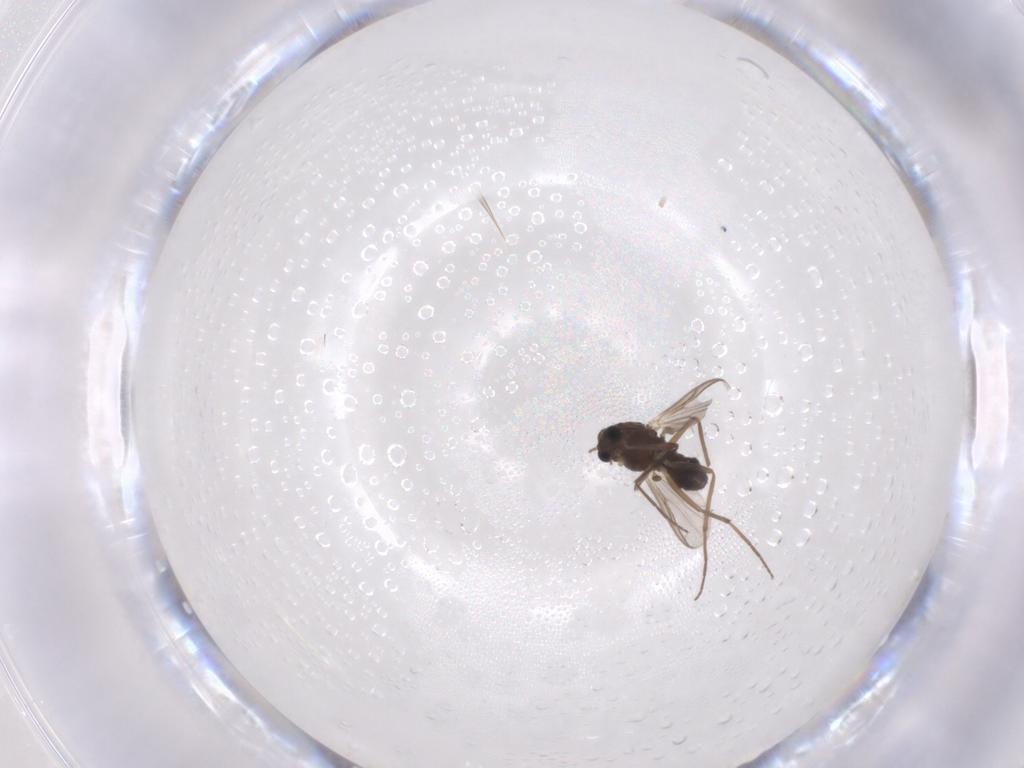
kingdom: Animalia
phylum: Arthropoda
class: Insecta
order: Diptera
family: Chironomidae
